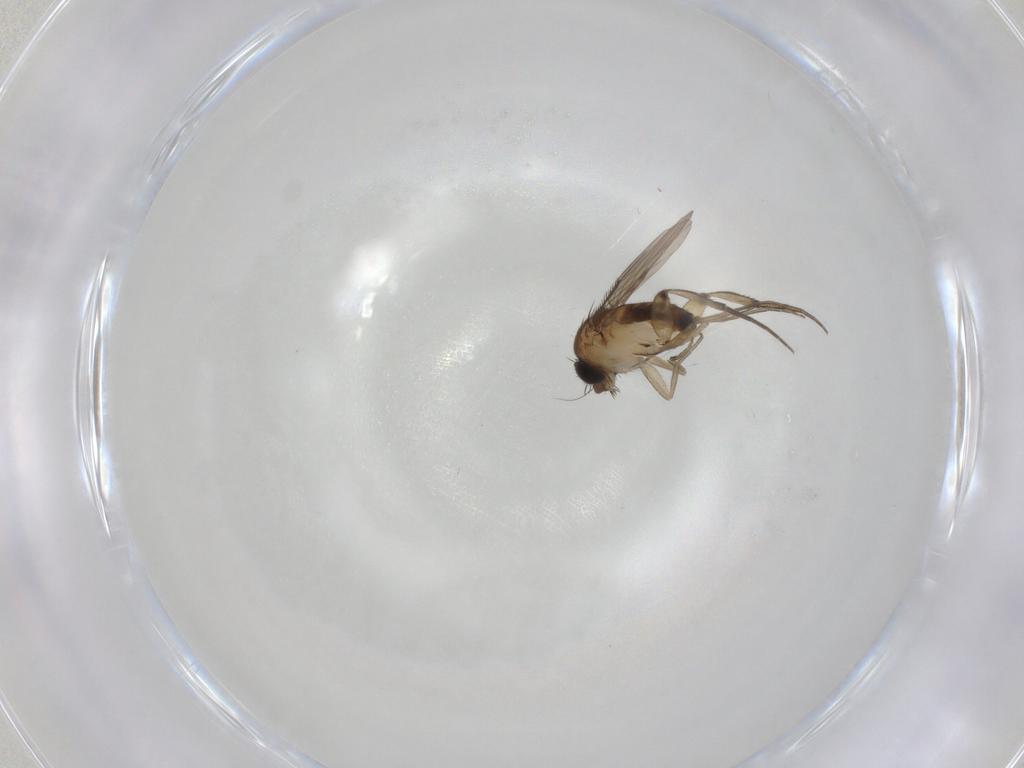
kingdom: Animalia
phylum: Arthropoda
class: Insecta
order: Diptera
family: Phoridae
